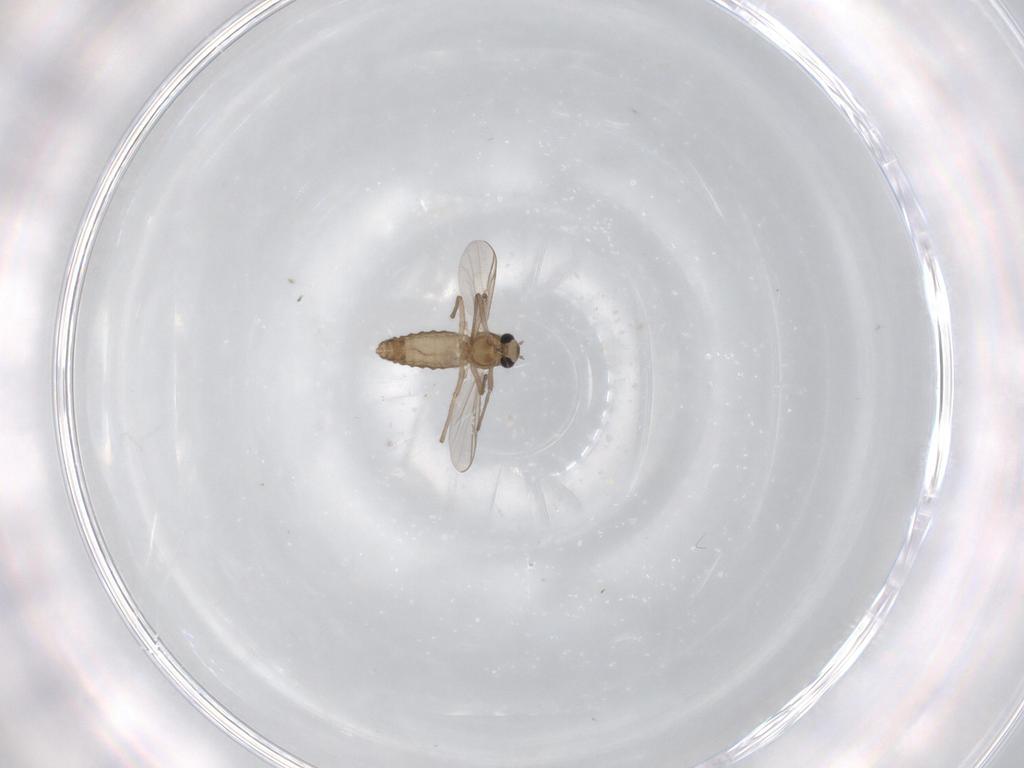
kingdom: Animalia
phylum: Arthropoda
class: Insecta
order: Diptera
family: Chironomidae
